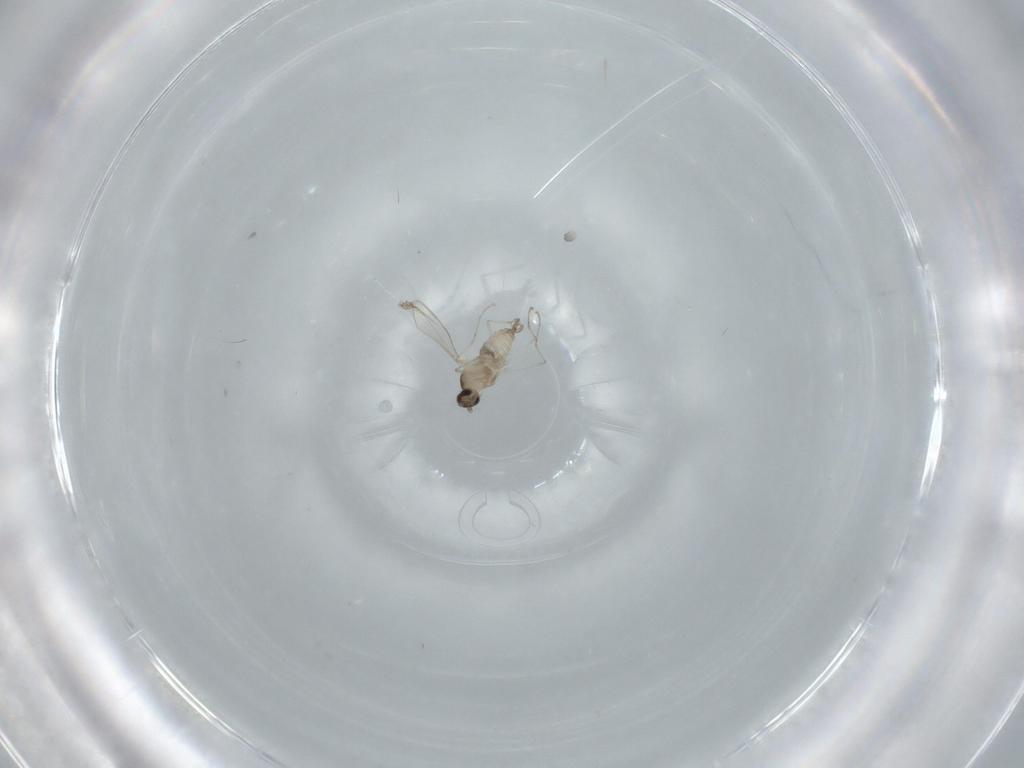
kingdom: Animalia
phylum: Arthropoda
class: Insecta
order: Diptera
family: Cecidomyiidae
